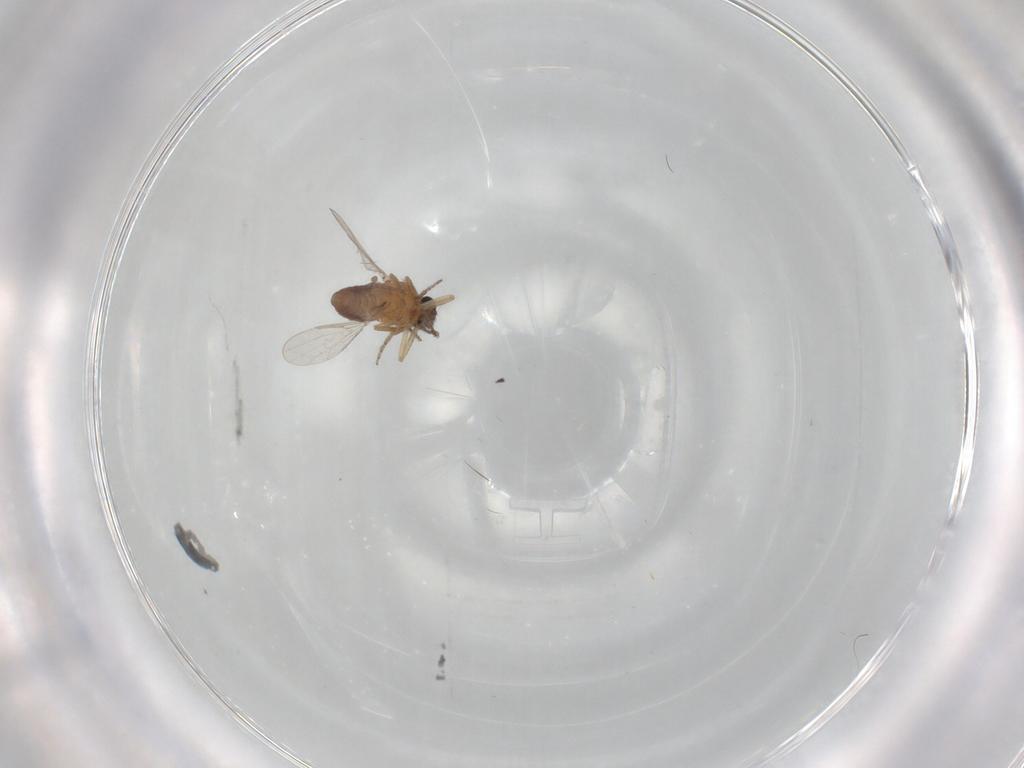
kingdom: Animalia
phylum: Arthropoda
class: Insecta
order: Diptera
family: Ceratopogonidae
